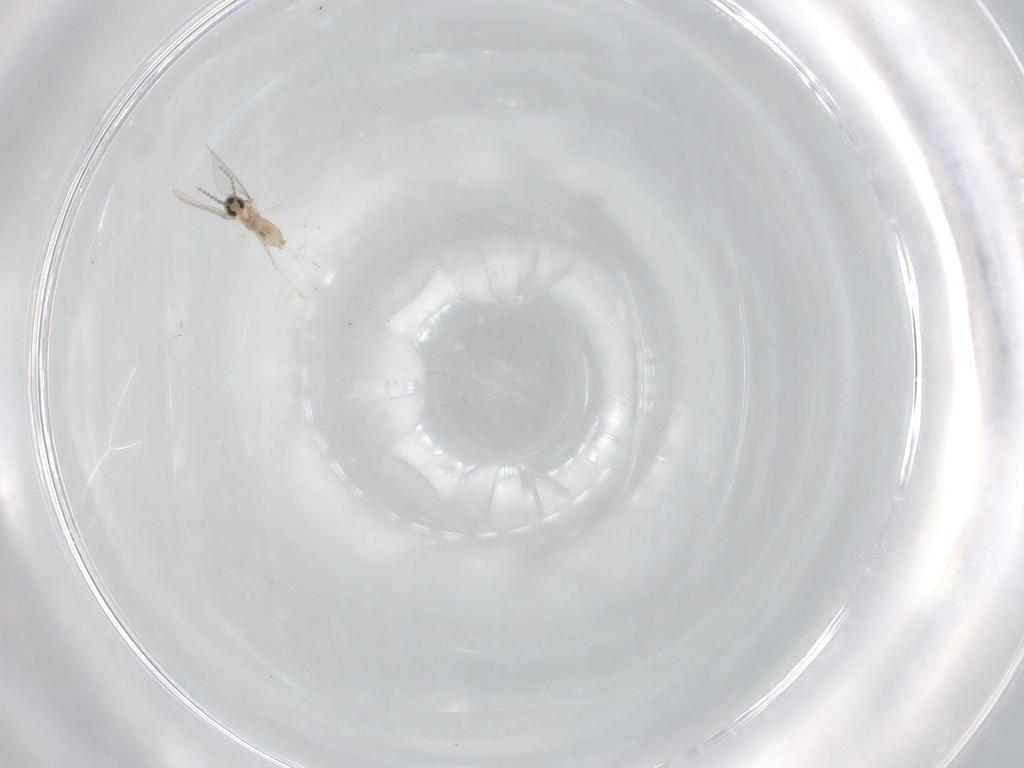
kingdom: Animalia
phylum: Arthropoda
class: Insecta
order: Diptera
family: Cecidomyiidae
